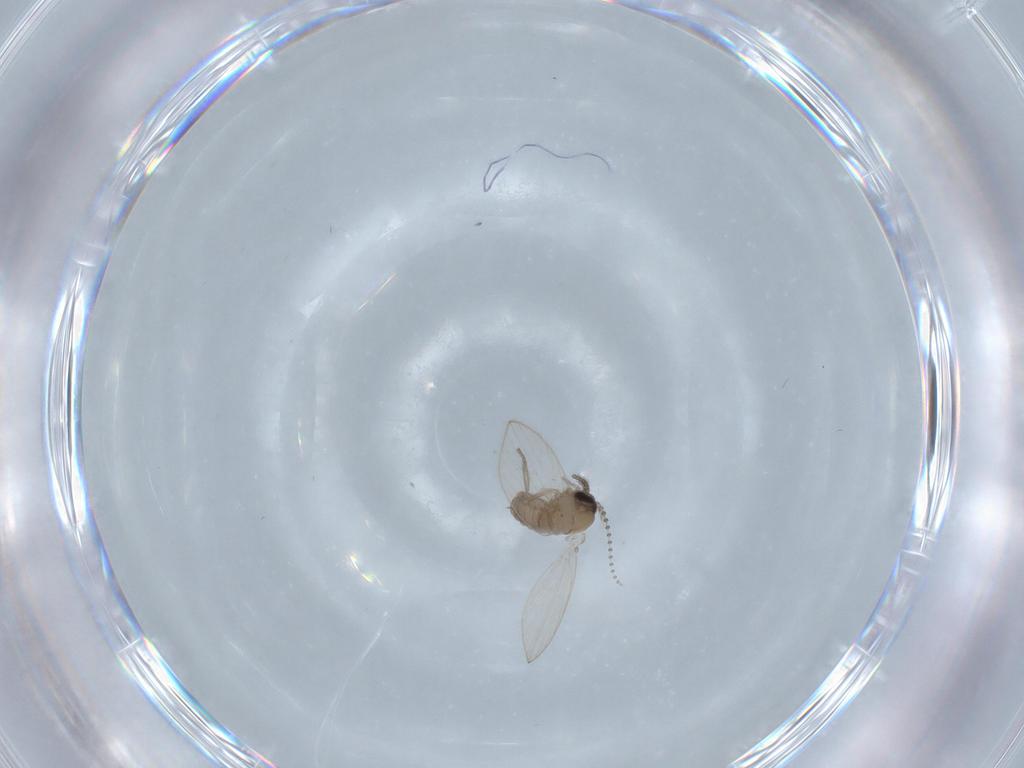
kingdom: Animalia
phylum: Arthropoda
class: Insecta
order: Diptera
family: Psychodidae
